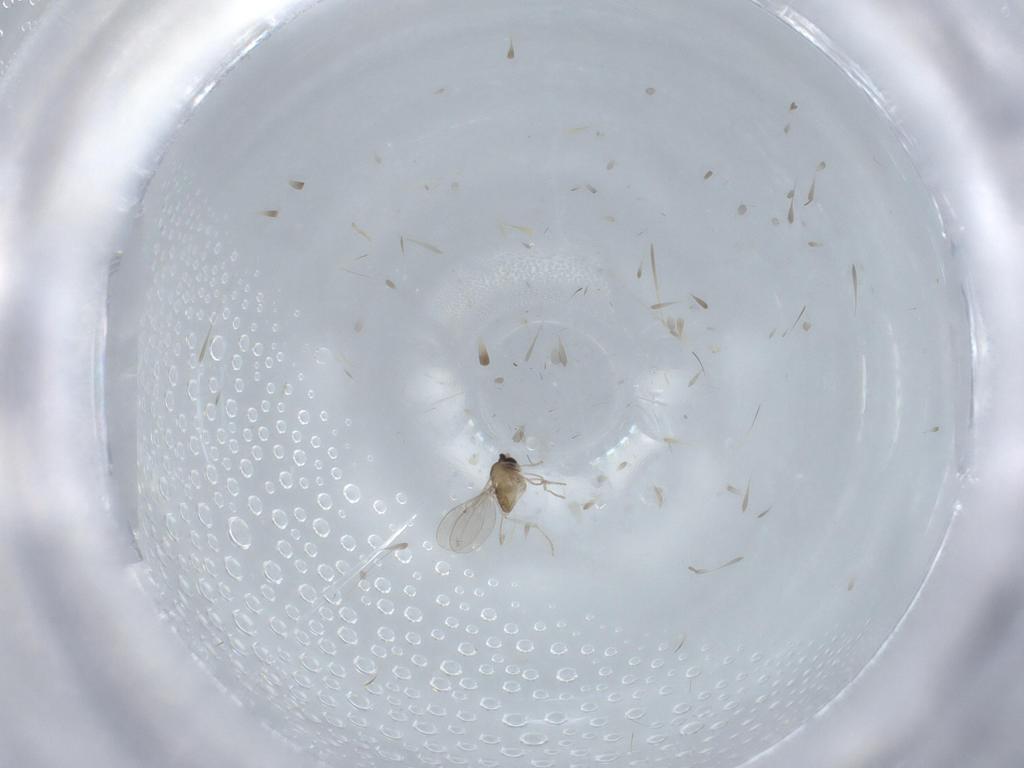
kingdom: Animalia
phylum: Arthropoda
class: Insecta
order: Diptera
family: Cecidomyiidae
